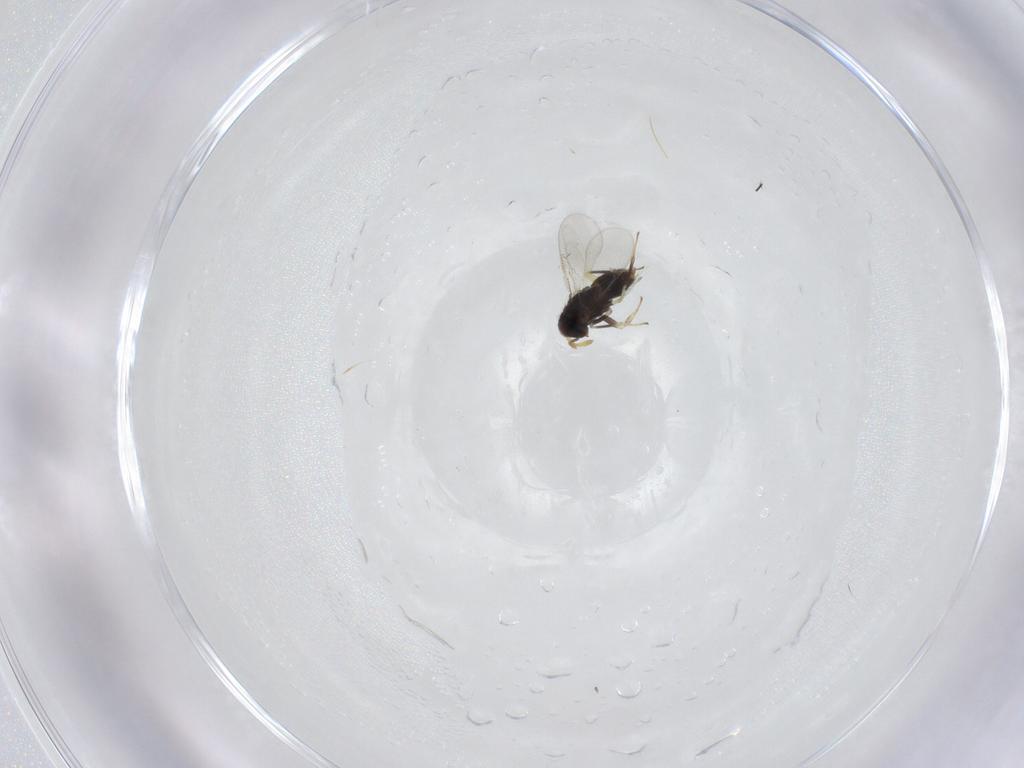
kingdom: Animalia
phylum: Arthropoda
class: Insecta
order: Hymenoptera
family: Aphelinidae
